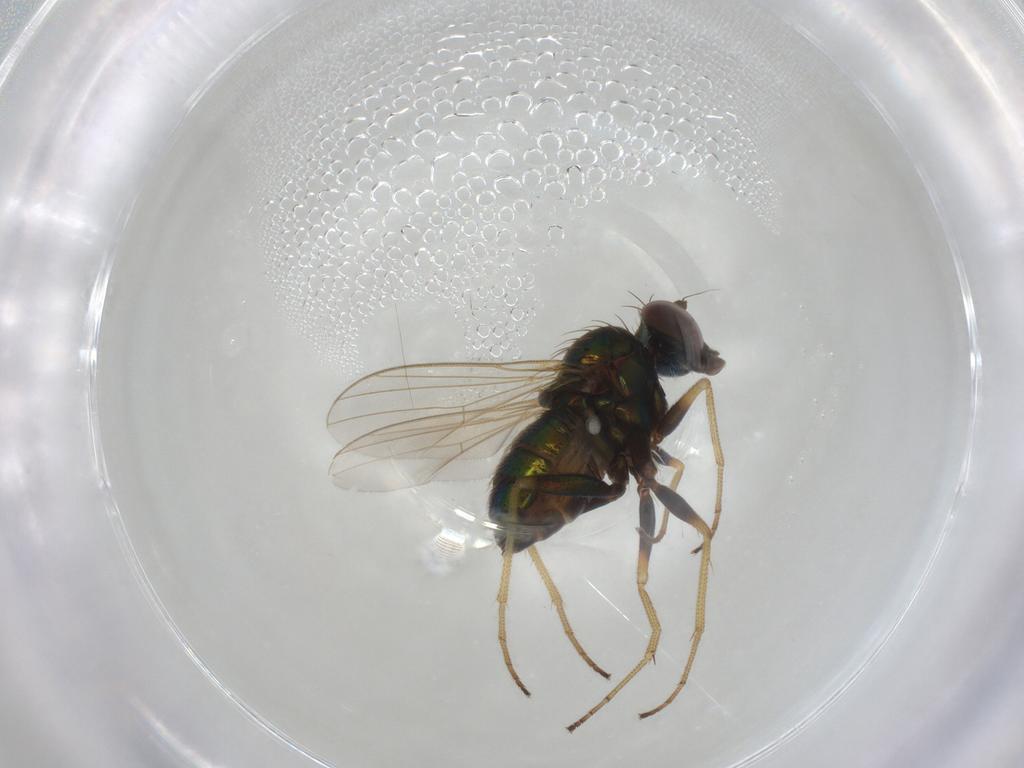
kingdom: Animalia
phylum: Arthropoda
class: Insecta
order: Diptera
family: Dolichopodidae
